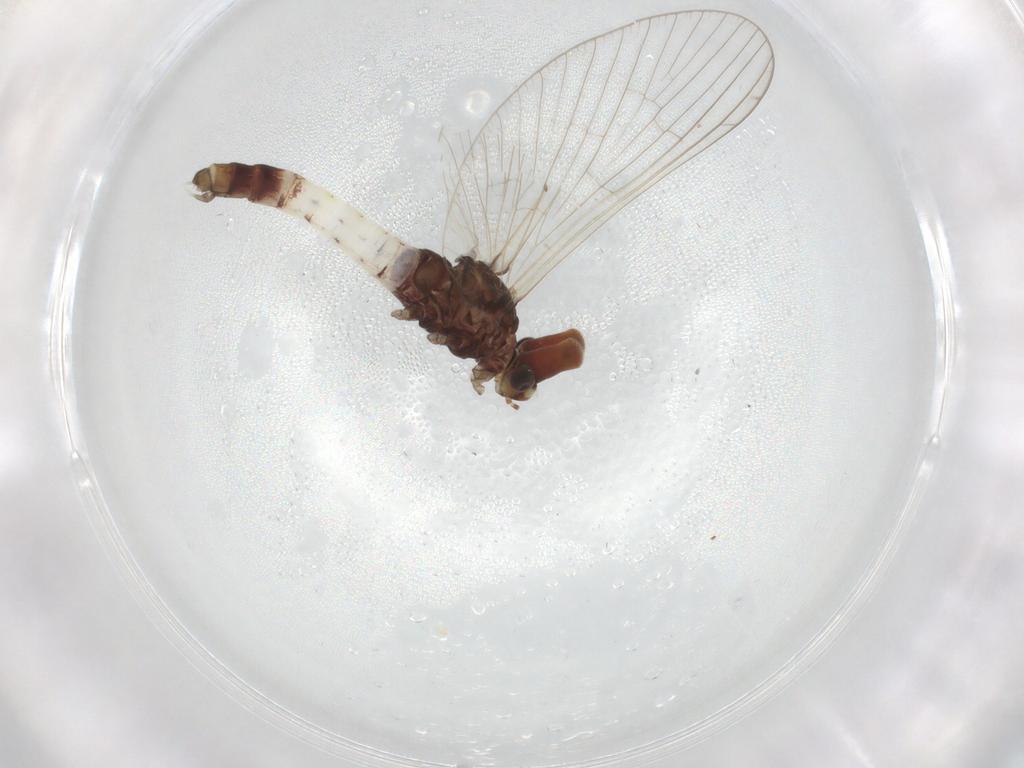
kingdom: Animalia
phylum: Arthropoda
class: Insecta
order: Diptera
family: Sciaridae
